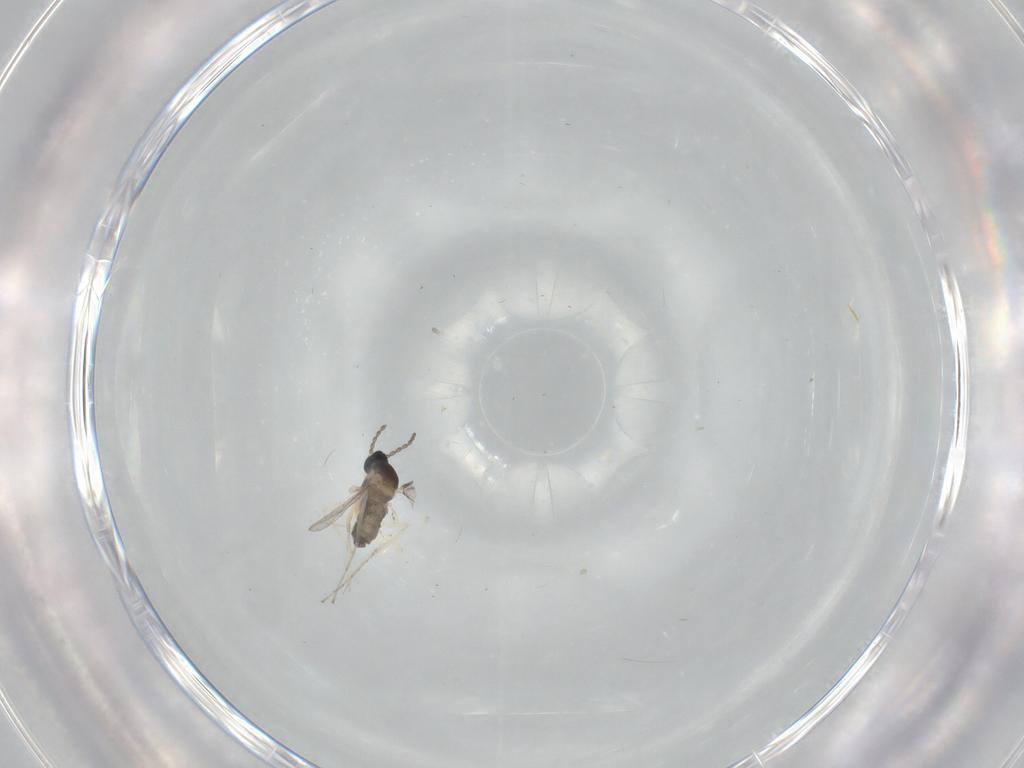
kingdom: Animalia
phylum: Arthropoda
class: Insecta
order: Diptera
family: Cecidomyiidae
